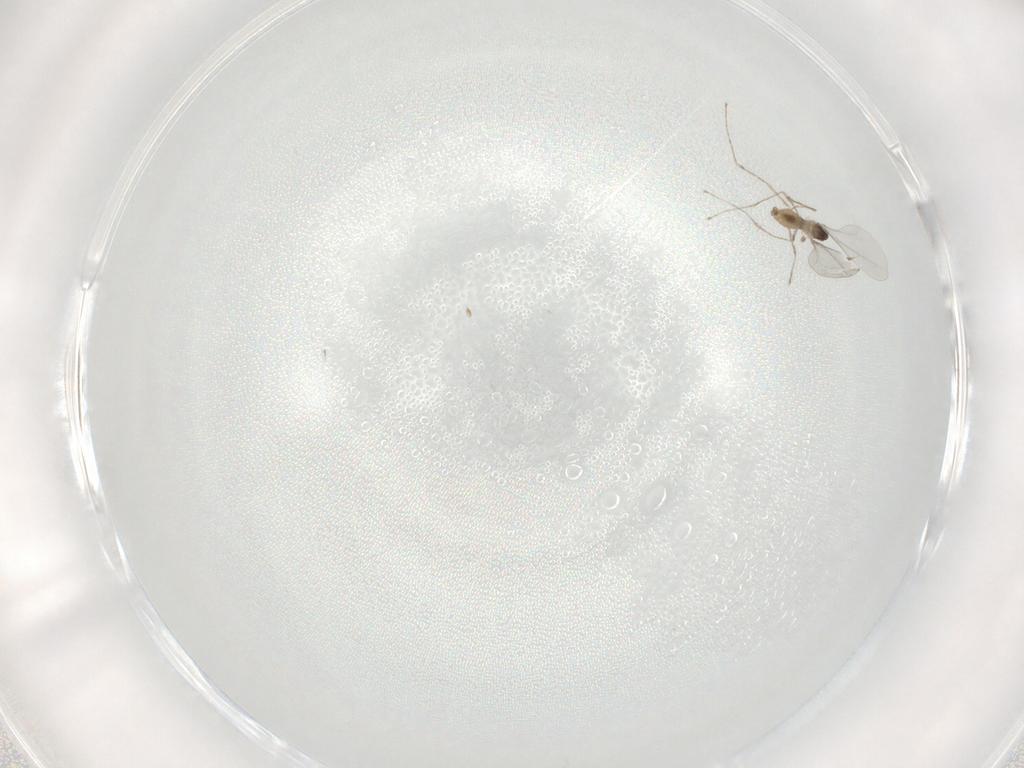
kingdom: Animalia
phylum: Arthropoda
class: Insecta
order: Diptera
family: Cecidomyiidae
